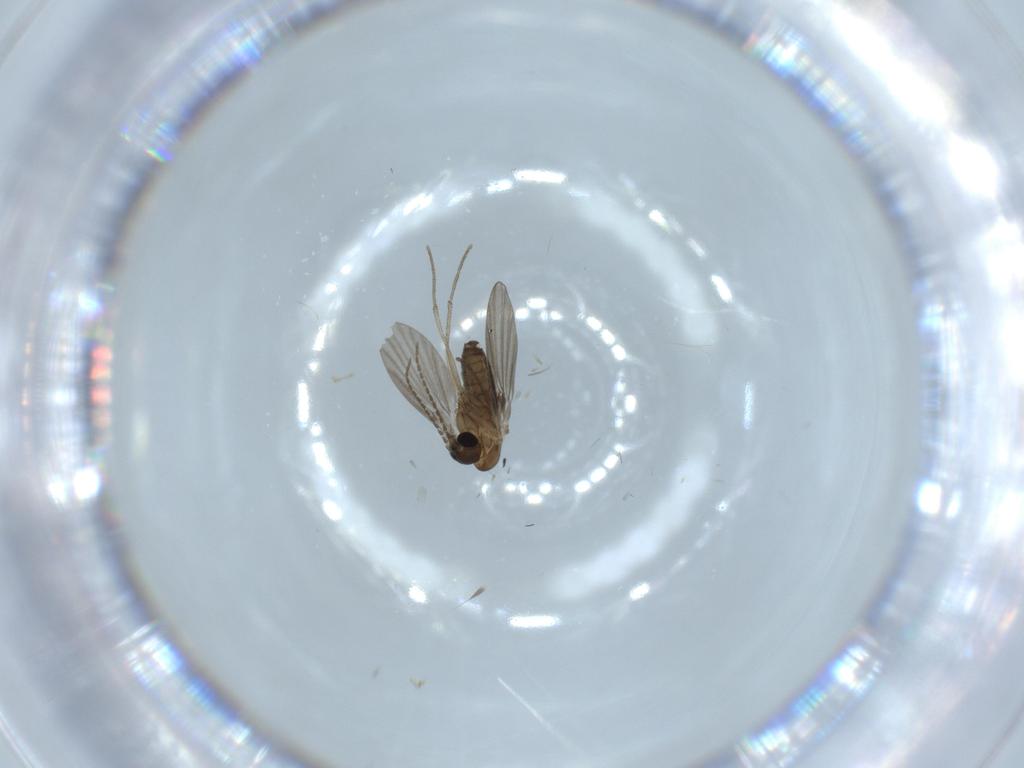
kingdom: Animalia
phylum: Arthropoda
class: Insecta
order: Diptera
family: Psychodidae
